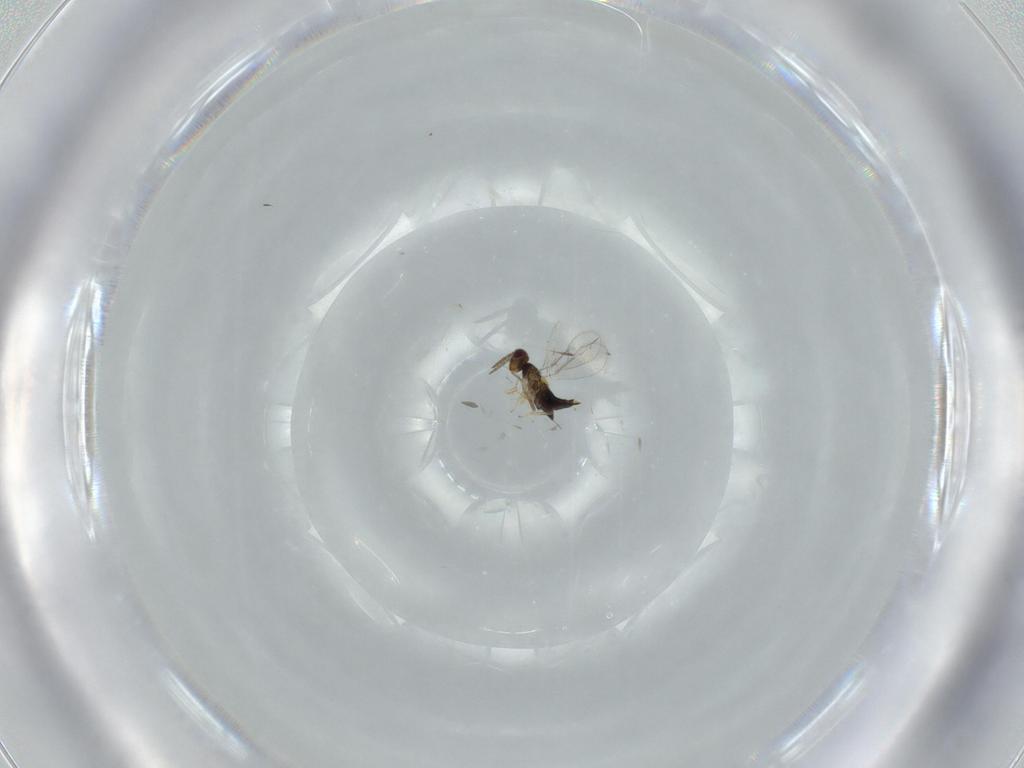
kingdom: Animalia
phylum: Arthropoda
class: Insecta
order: Hymenoptera
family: Aphelinidae
